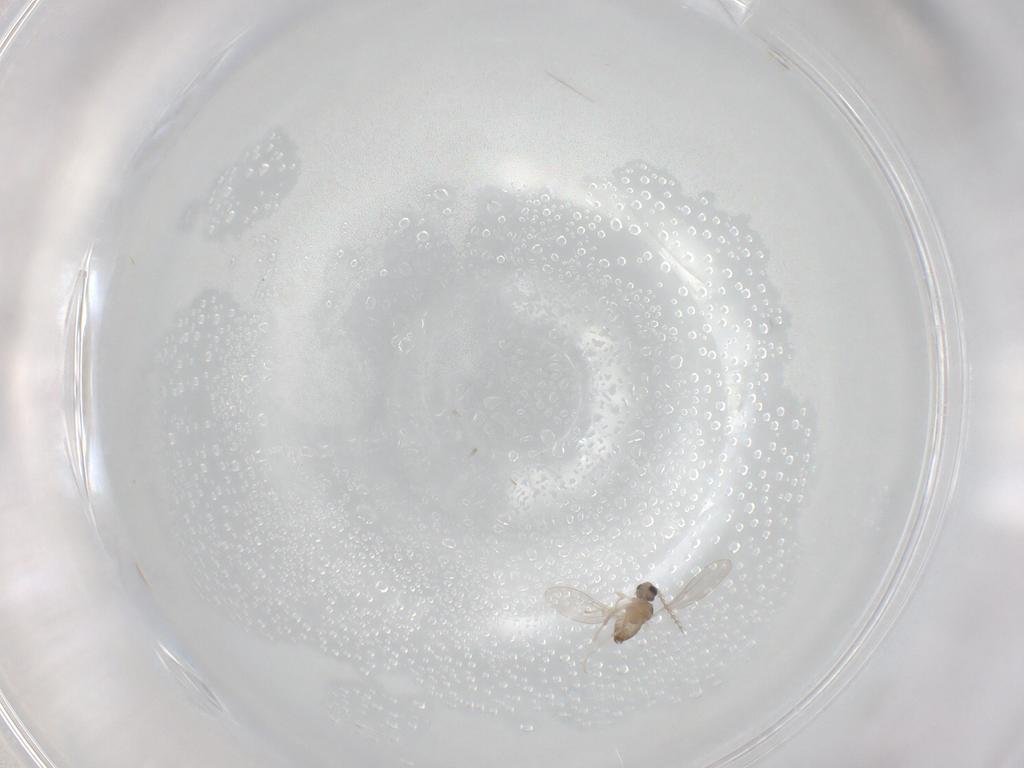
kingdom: Animalia
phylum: Arthropoda
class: Insecta
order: Diptera
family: Cecidomyiidae
